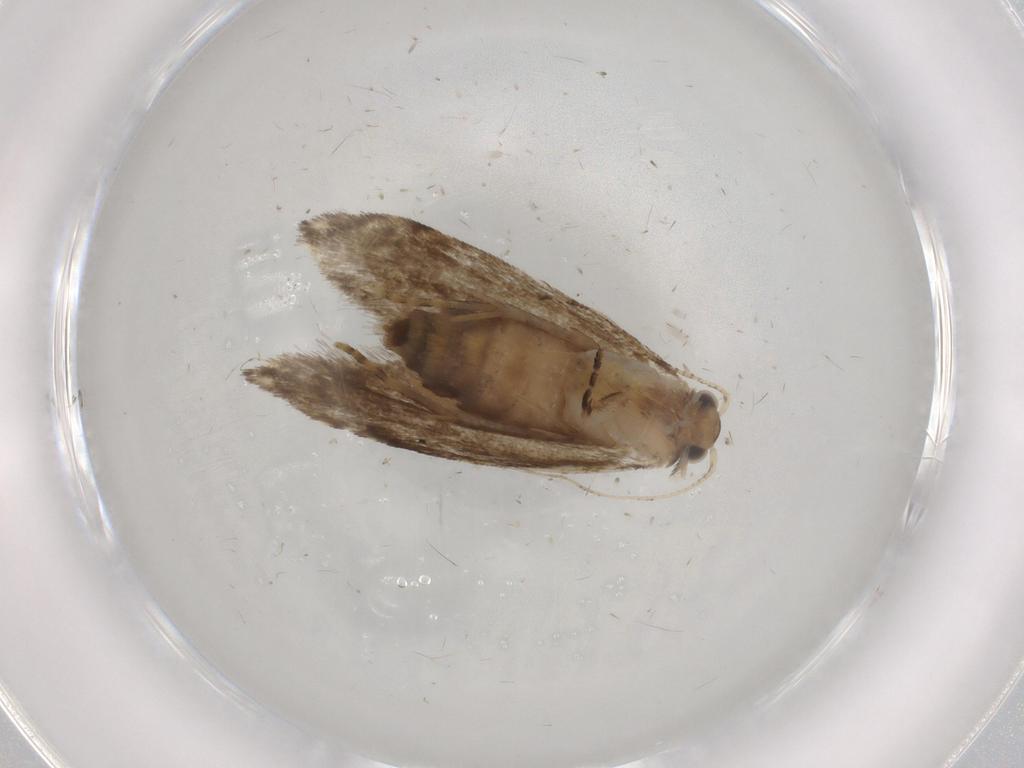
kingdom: Animalia
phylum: Arthropoda
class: Insecta
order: Lepidoptera
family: Tineidae
